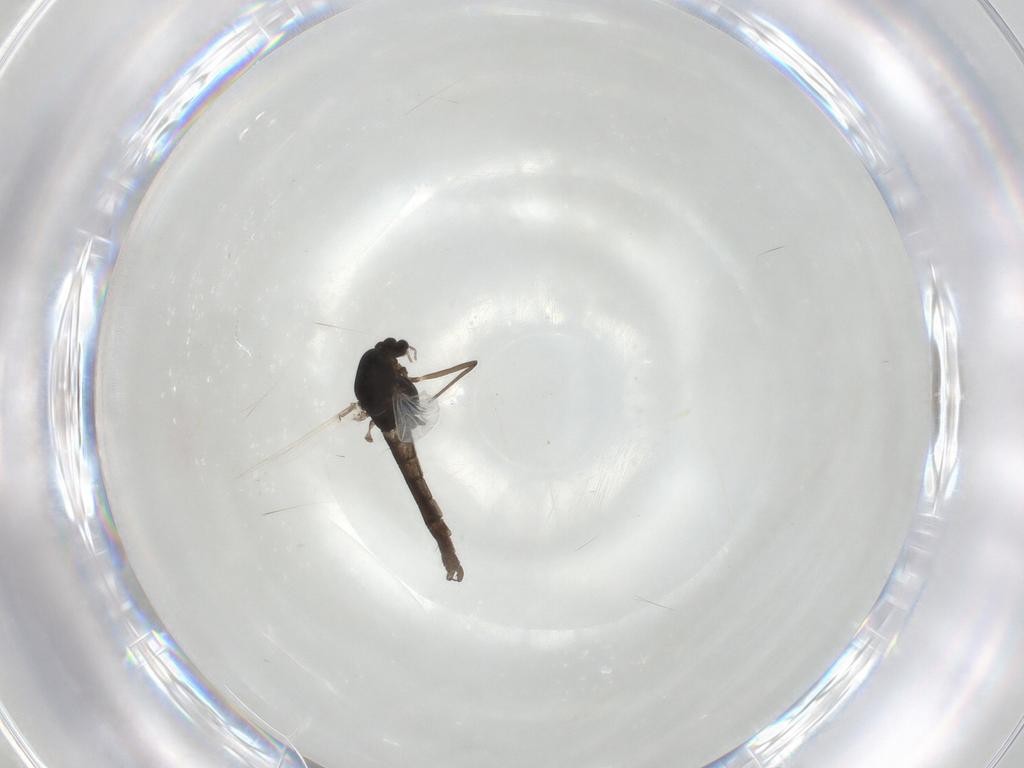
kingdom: Animalia
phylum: Arthropoda
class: Insecta
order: Diptera
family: Chironomidae
